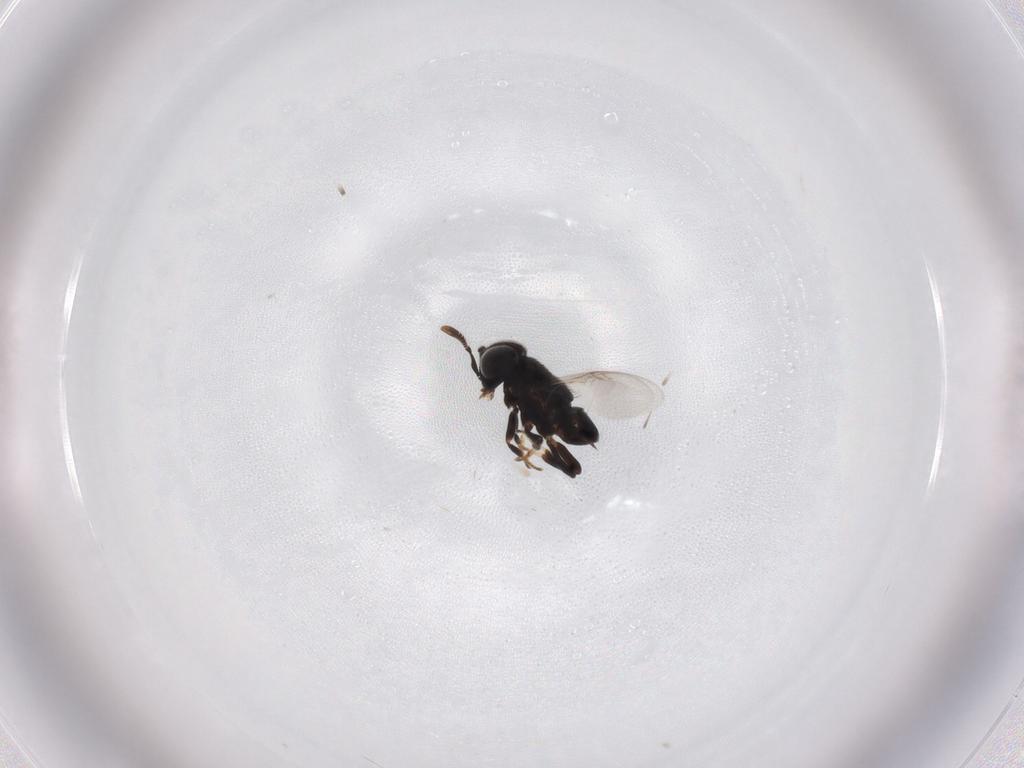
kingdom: Animalia
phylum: Arthropoda
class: Insecta
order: Hymenoptera
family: Encyrtidae
